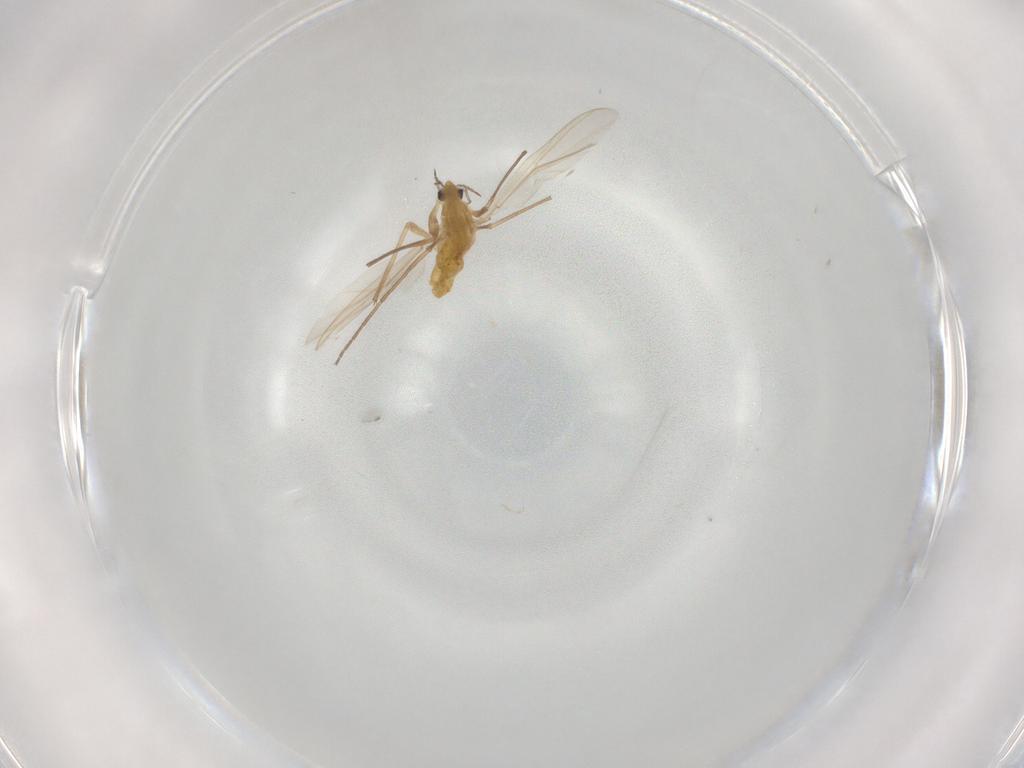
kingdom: Animalia
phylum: Arthropoda
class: Insecta
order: Diptera
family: Chironomidae
